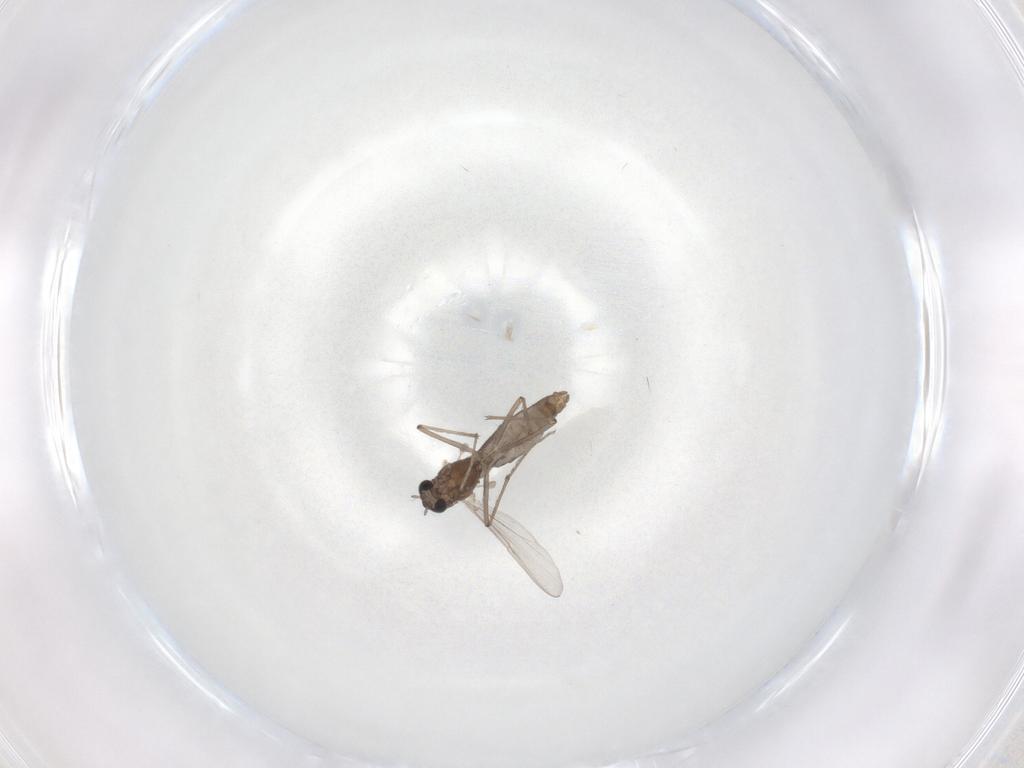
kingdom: Animalia
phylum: Arthropoda
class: Insecta
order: Diptera
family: Chironomidae
